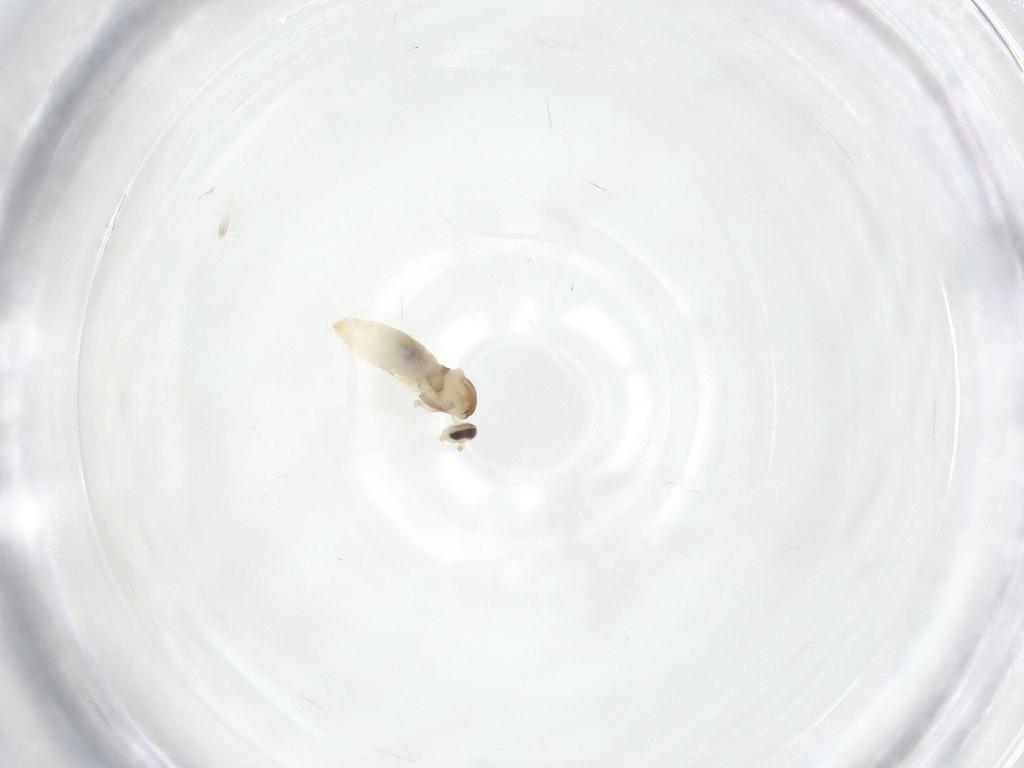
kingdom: Animalia
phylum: Arthropoda
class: Insecta
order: Diptera
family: Cecidomyiidae
